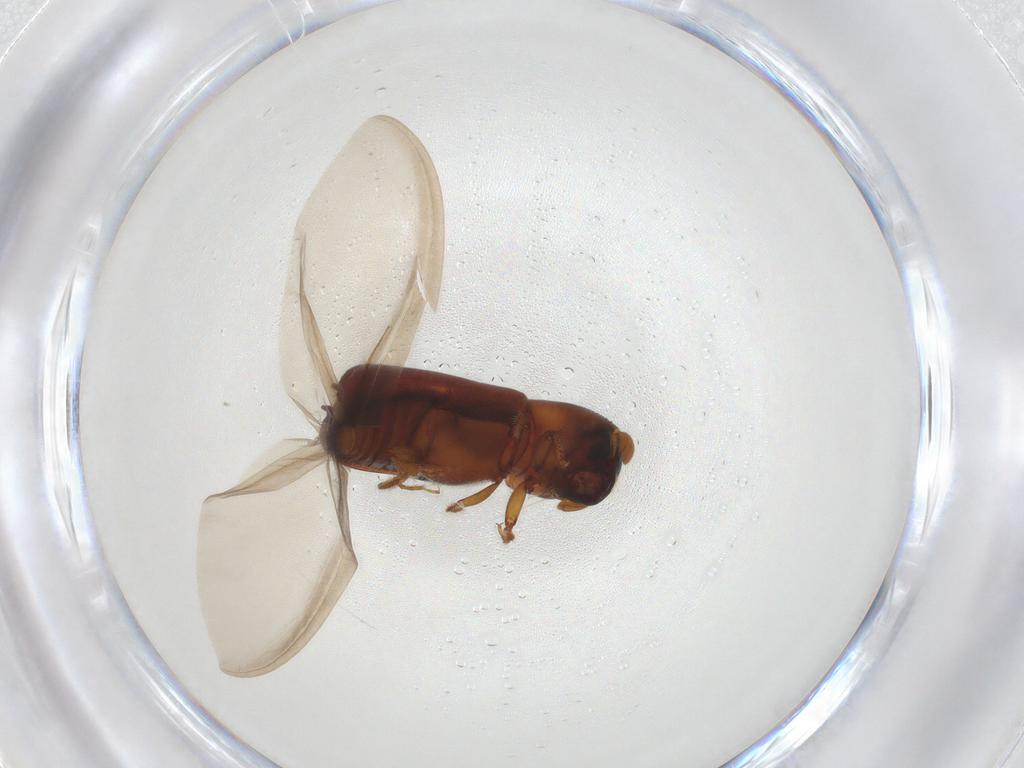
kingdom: Animalia
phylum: Arthropoda
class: Insecta
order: Coleoptera
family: Curculionidae
